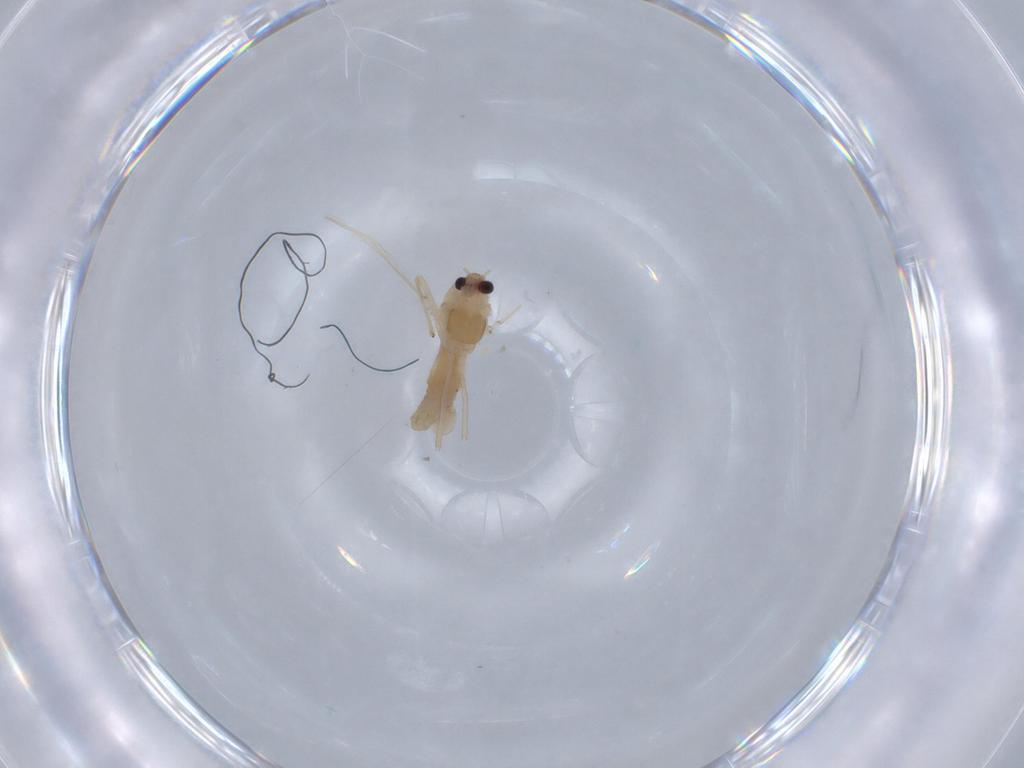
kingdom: Animalia
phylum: Arthropoda
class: Insecta
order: Diptera
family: Chironomidae
